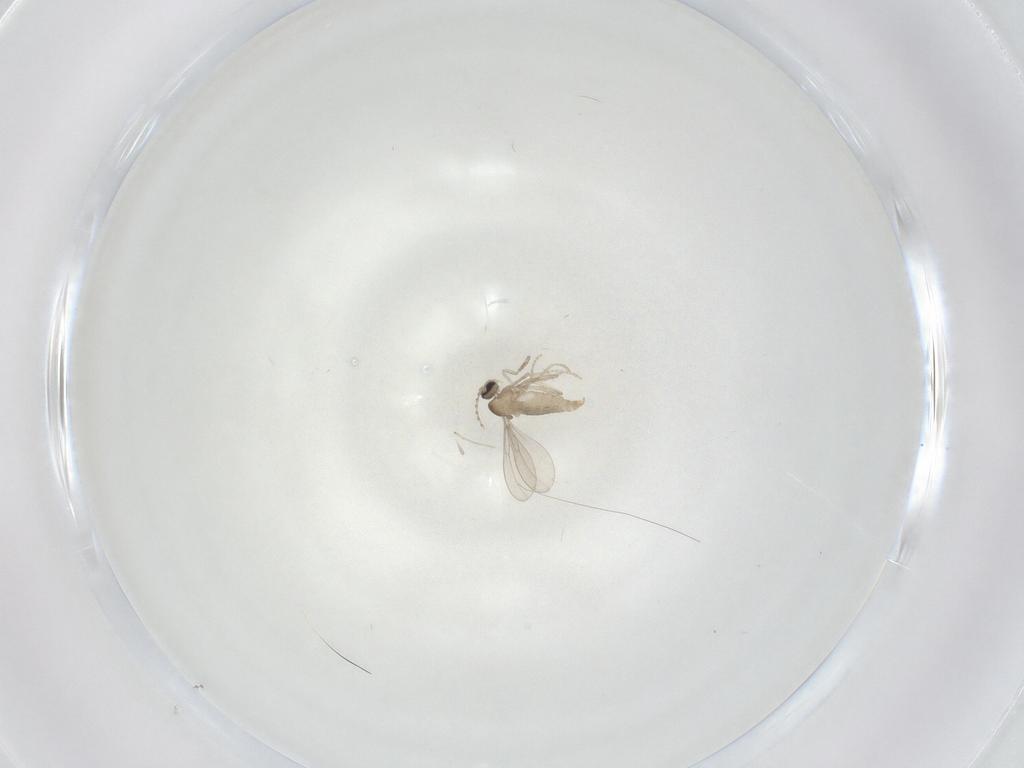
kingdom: Animalia
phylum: Arthropoda
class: Insecta
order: Diptera
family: Cecidomyiidae
